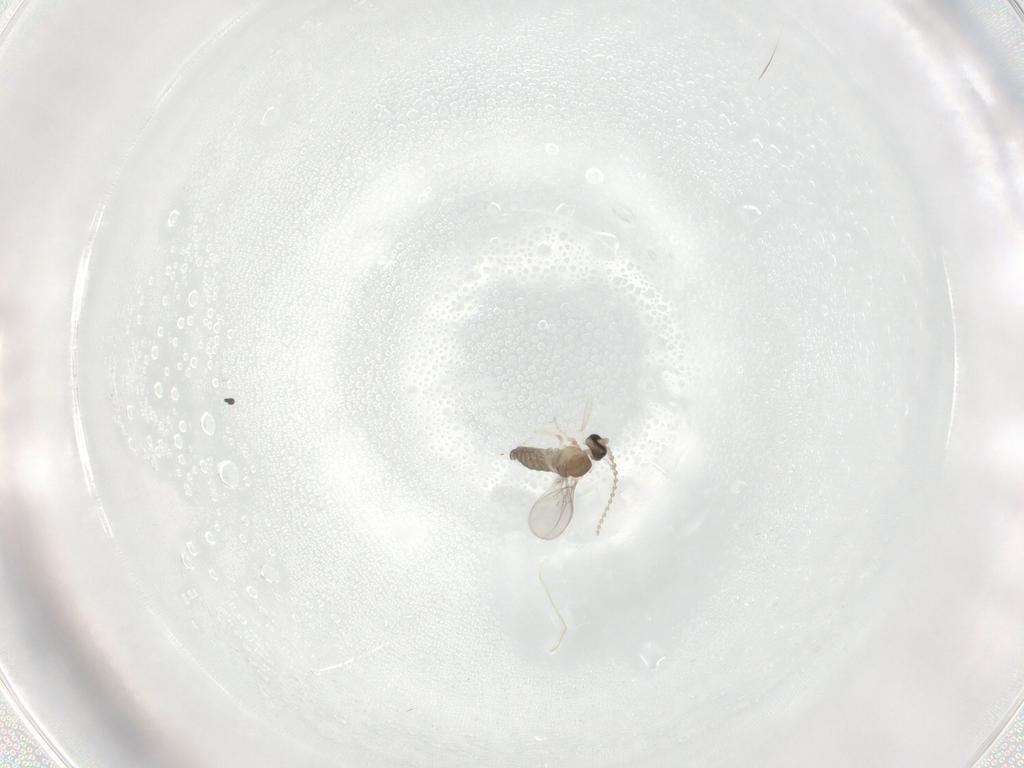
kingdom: Animalia
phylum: Arthropoda
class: Insecta
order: Diptera
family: Cecidomyiidae
